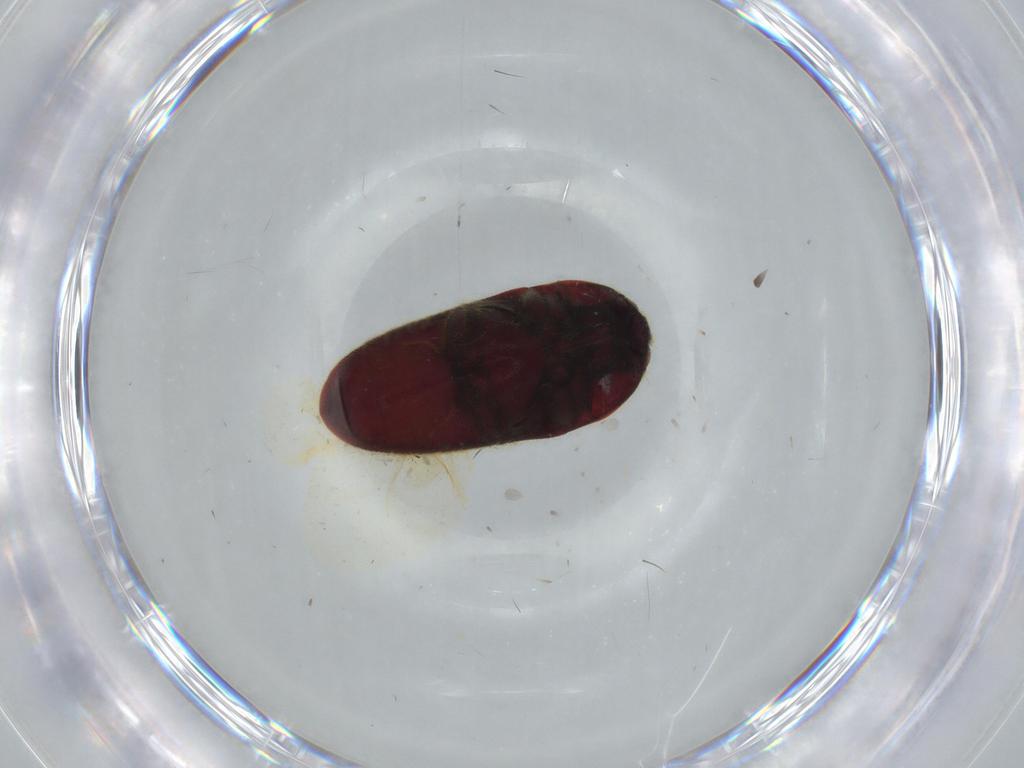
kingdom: Animalia
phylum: Arthropoda
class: Insecta
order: Coleoptera
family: Throscidae
